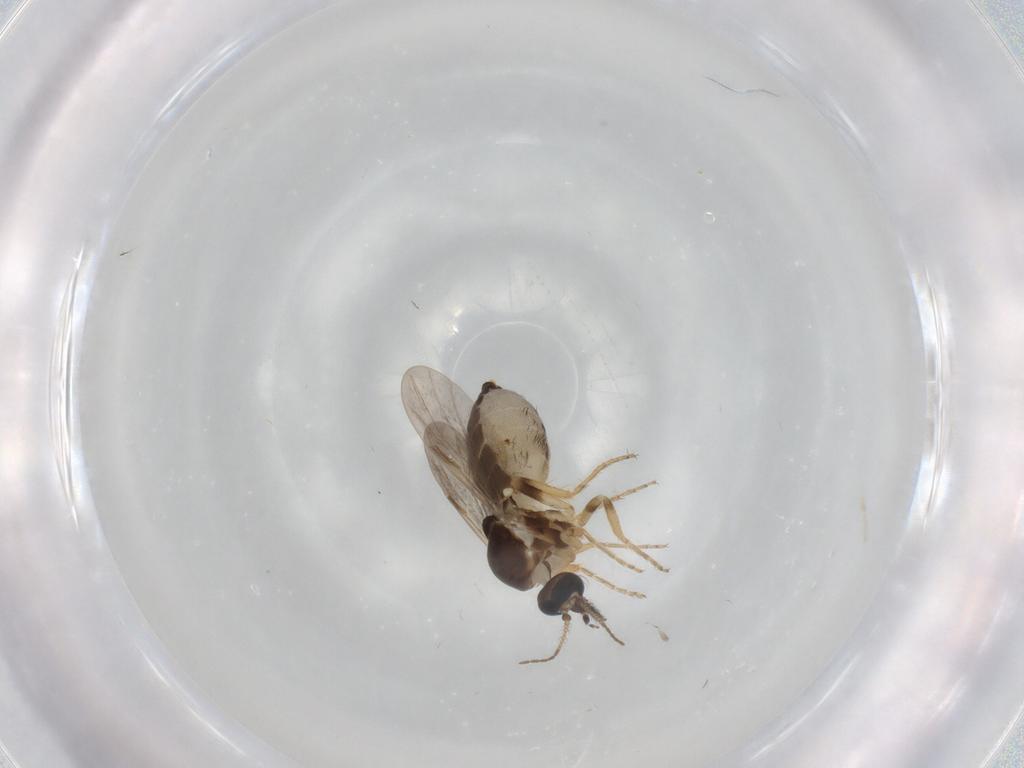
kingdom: Animalia
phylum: Arthropoda
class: Insecta
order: Diptera
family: Ceratopogonidae
